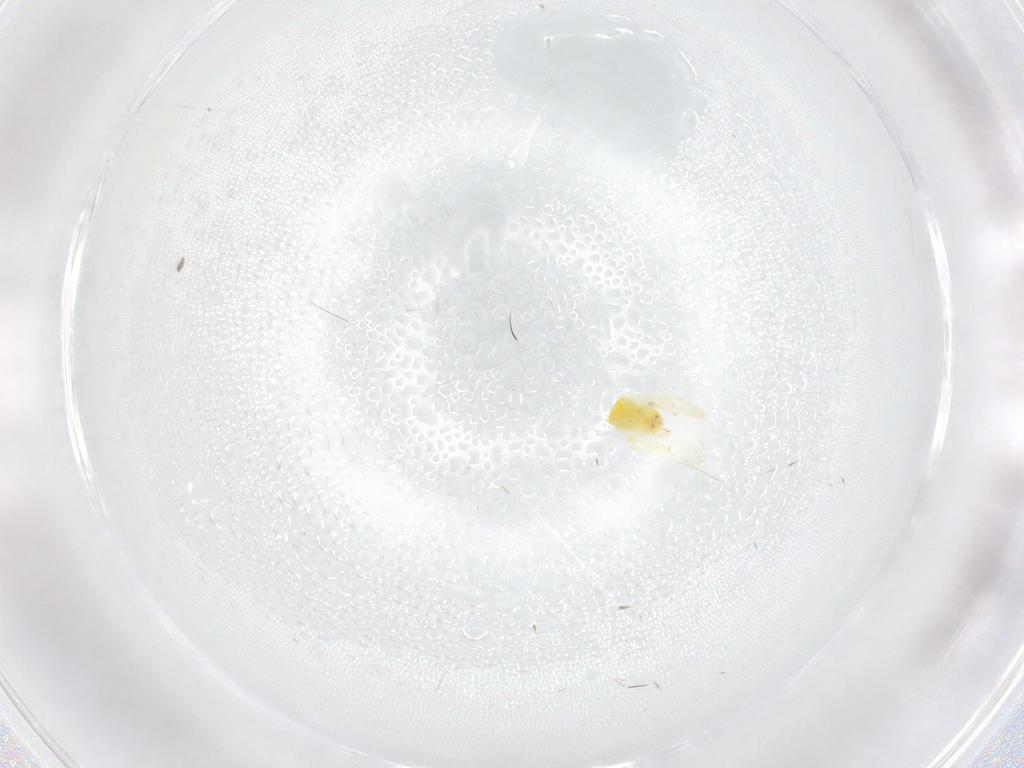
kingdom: Animalia
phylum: Arthropoda
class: Insecta
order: Hemiptera
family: Aleyrodidae
